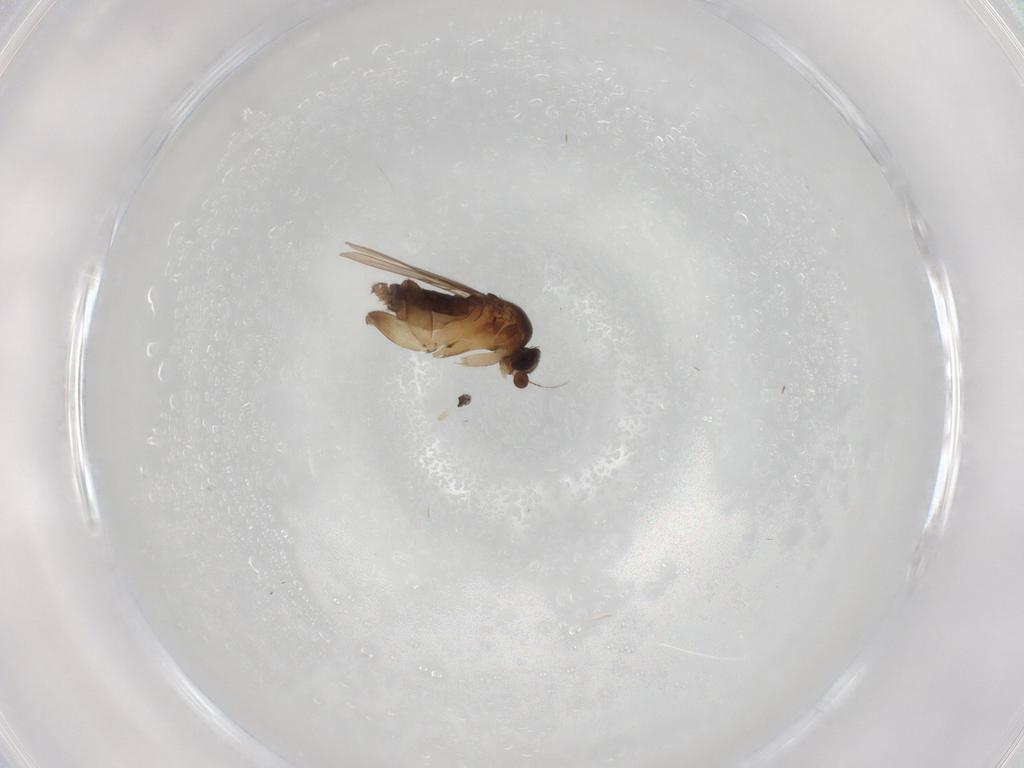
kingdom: Animalia
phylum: Arthropoda
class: Insecta
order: Diptera
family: Phoridae
